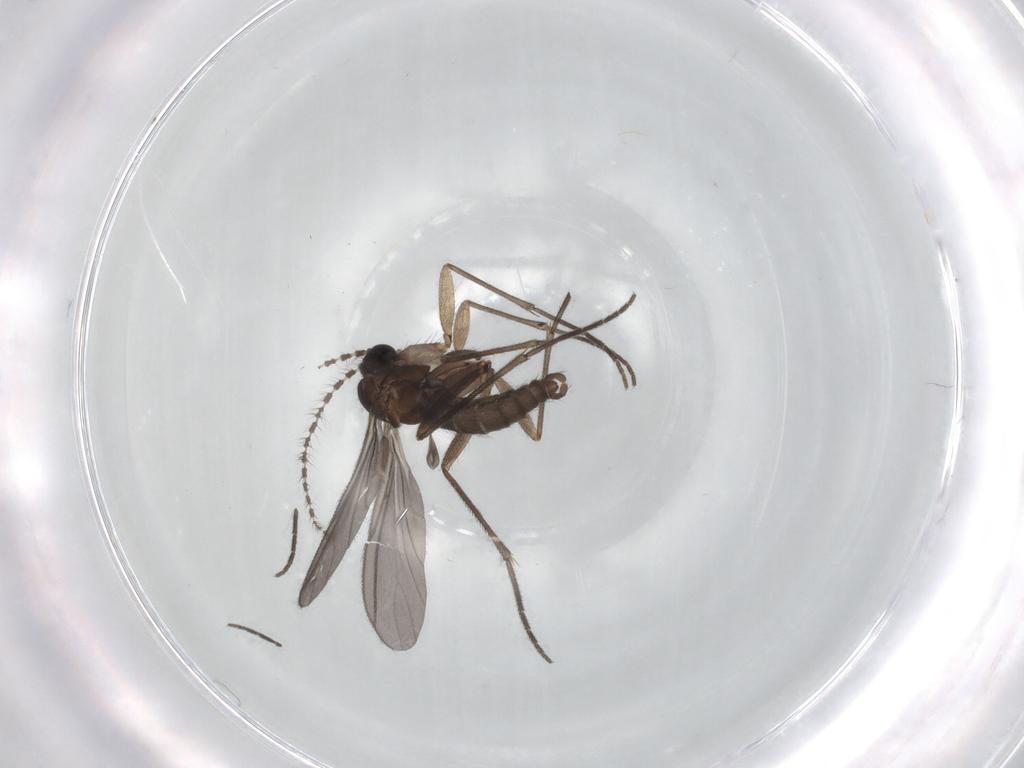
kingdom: Animalia
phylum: Arthropoda
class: Insecta
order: Diptera
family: Sciaridae
